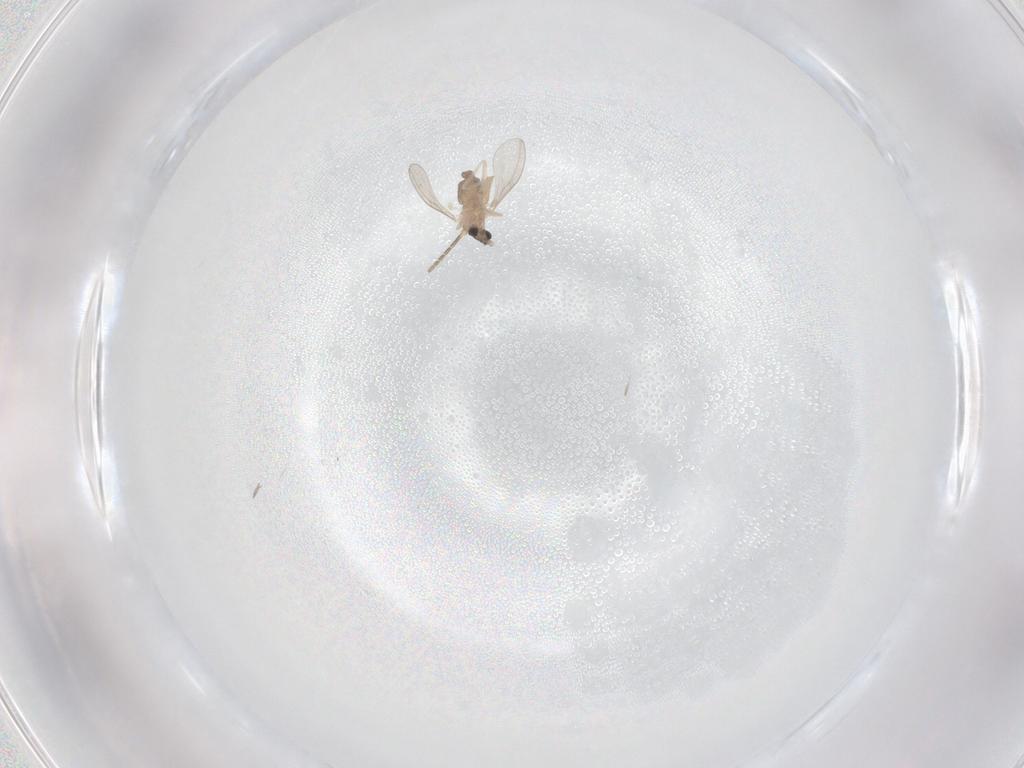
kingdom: Animalia
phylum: Arthropoda
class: Insecta
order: Diptera
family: Cecidomyiidae
